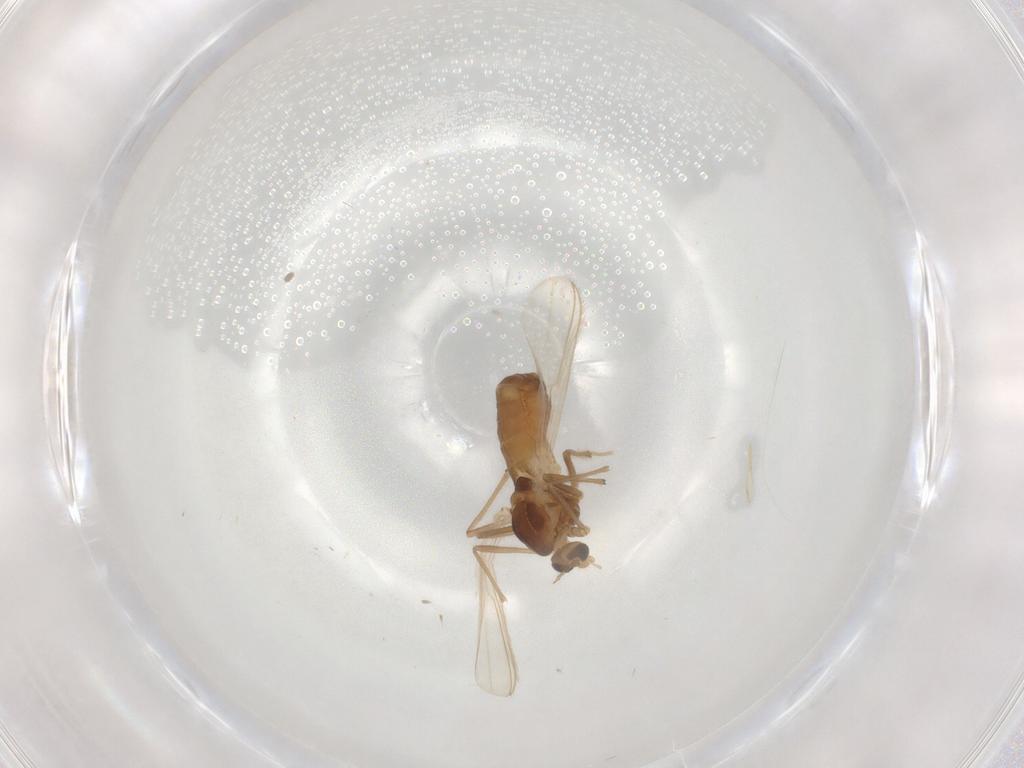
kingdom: Animalia
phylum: Arthropoda
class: Insecta
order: Diptera
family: Chironomidae
